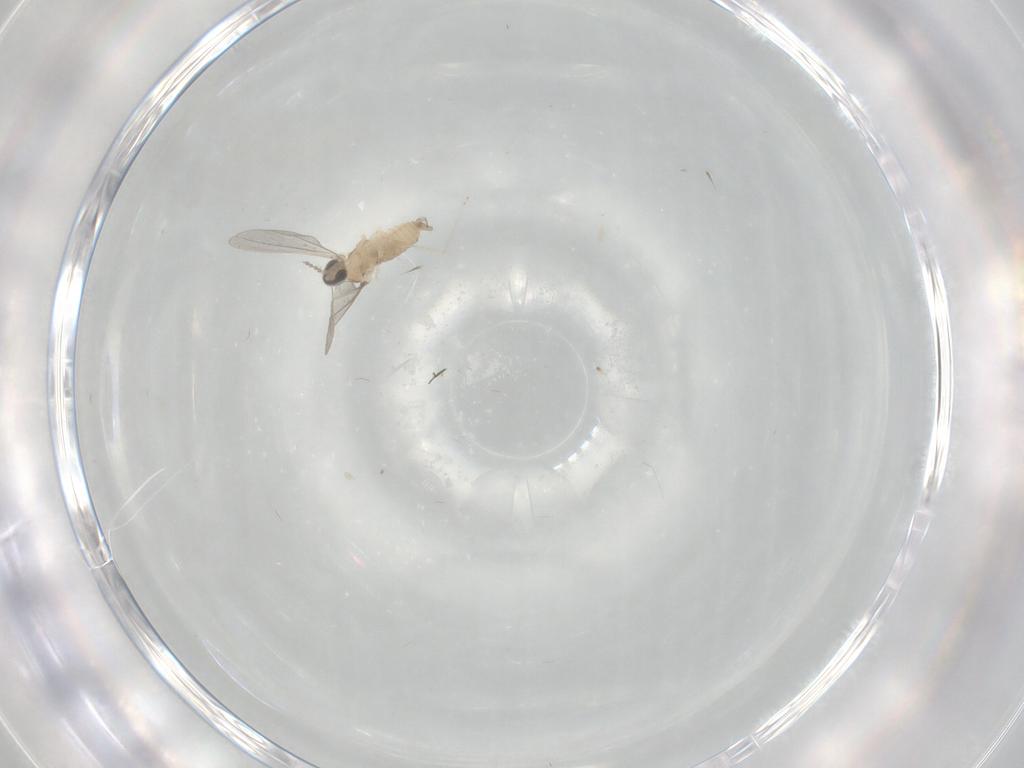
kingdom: Animalia
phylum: Arthropoda
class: Insecta
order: Diptera
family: Cecidomyiidae
